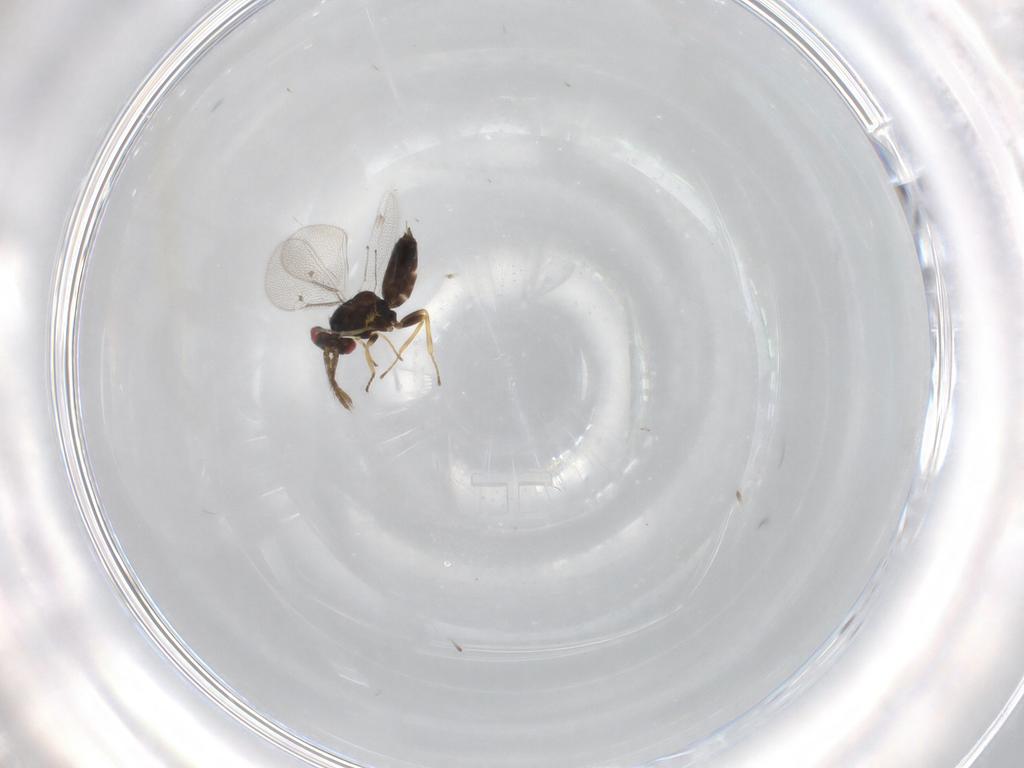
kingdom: Animalia
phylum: Arthropoda
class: Insecta
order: Hymenoptera
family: Eulophidae
